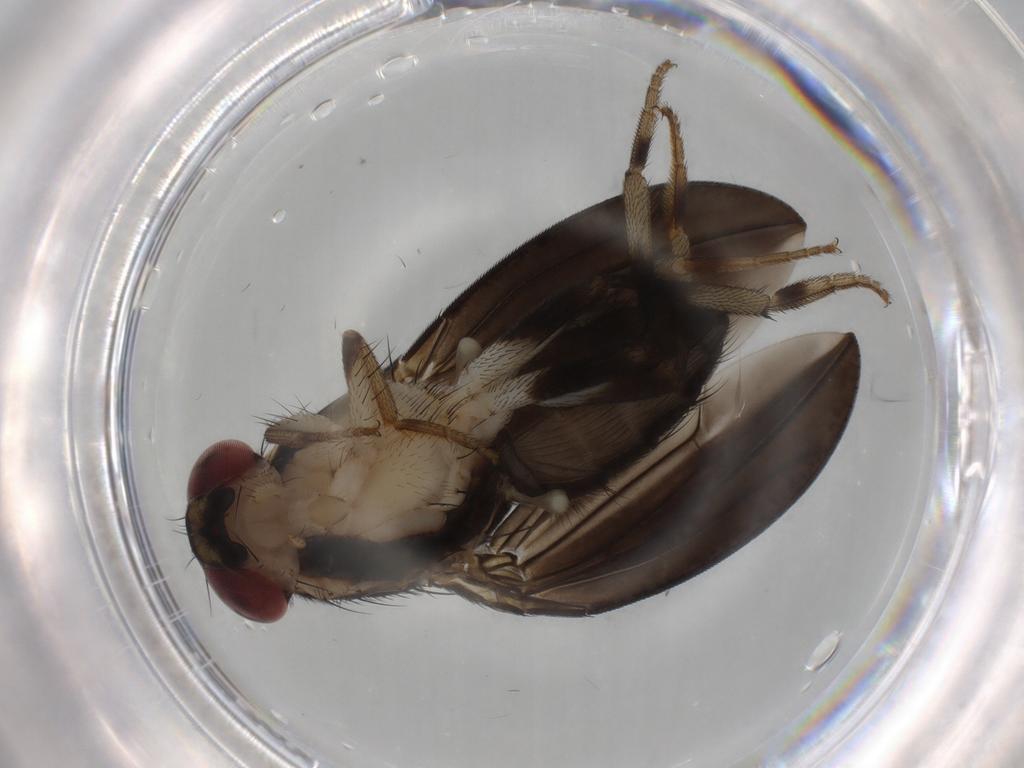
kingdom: Animalia
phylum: Arthropoda
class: Insecta
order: Diptera
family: Drosophilidae
